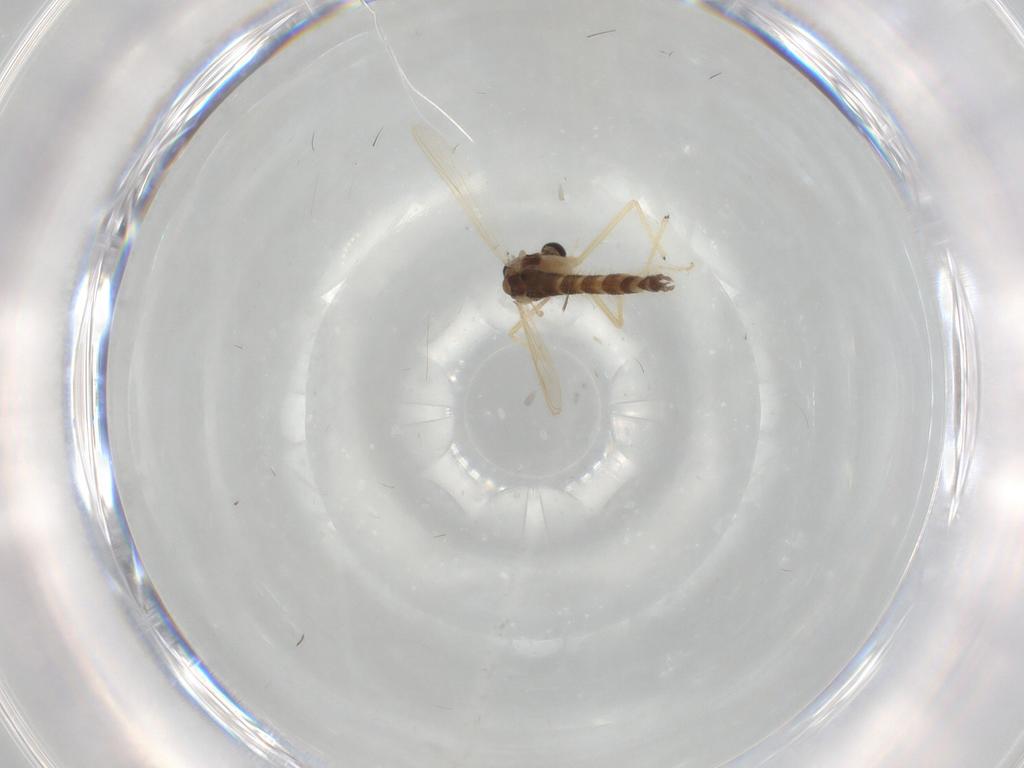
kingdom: Animalia
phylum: Arthropoda
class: Insecta
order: Diptera
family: Chironomidae
